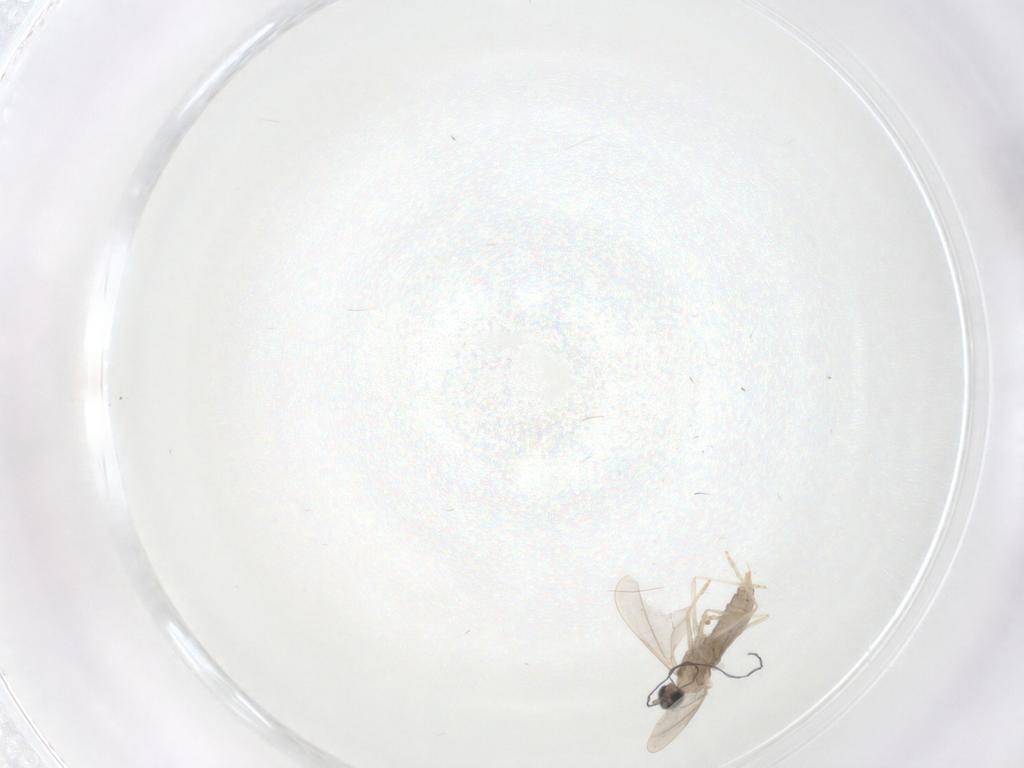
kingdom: Animalia
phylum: Arthropoda
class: Insecta
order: Diptera
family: Cecidomyiidae
